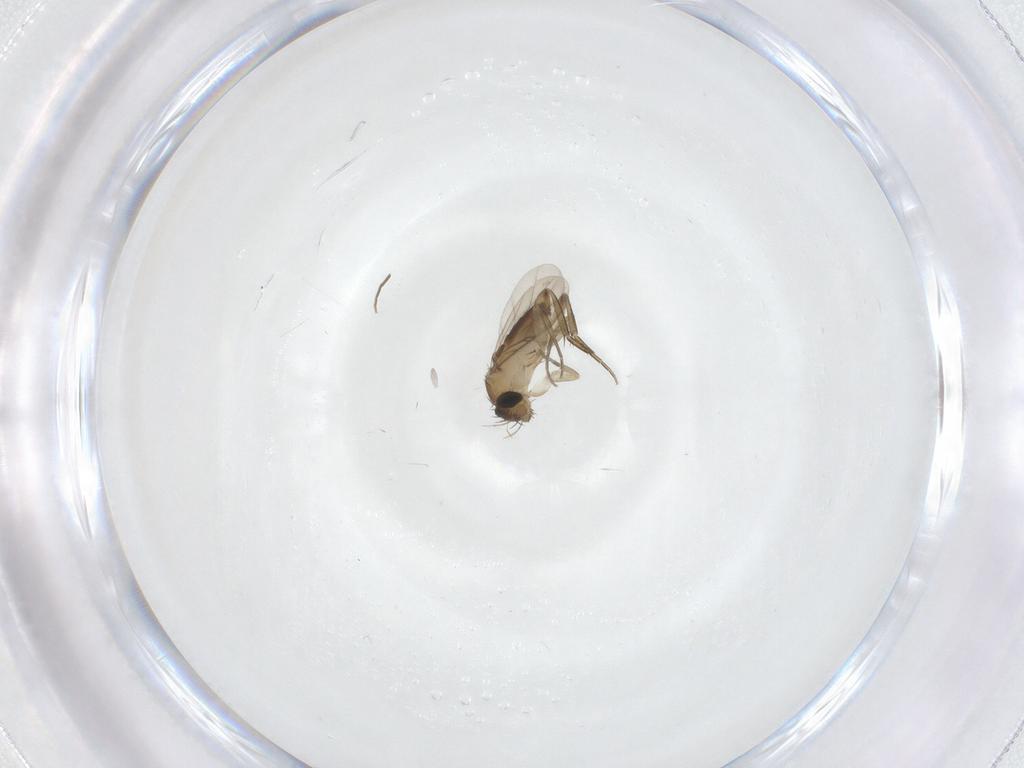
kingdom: Animalia
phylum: Arthropoda
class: Insecta
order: Diptera
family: Phoridae
